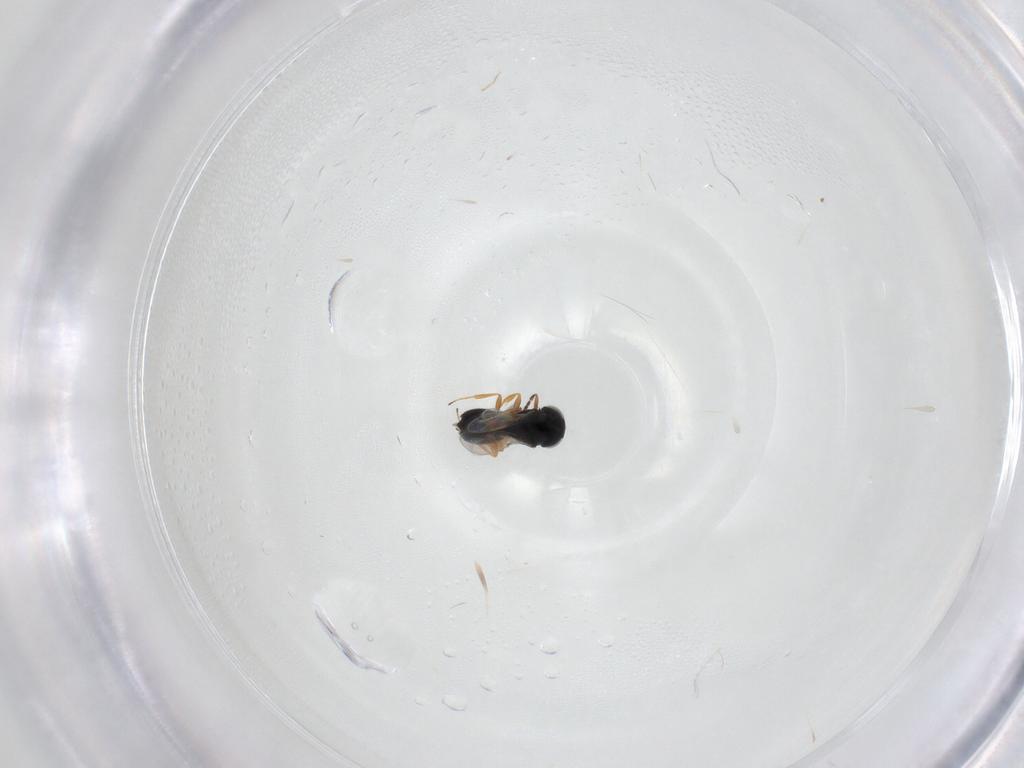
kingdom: Animalia
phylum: Arthropoda
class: Insecta
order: Hymenoptera
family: Scelionidae
